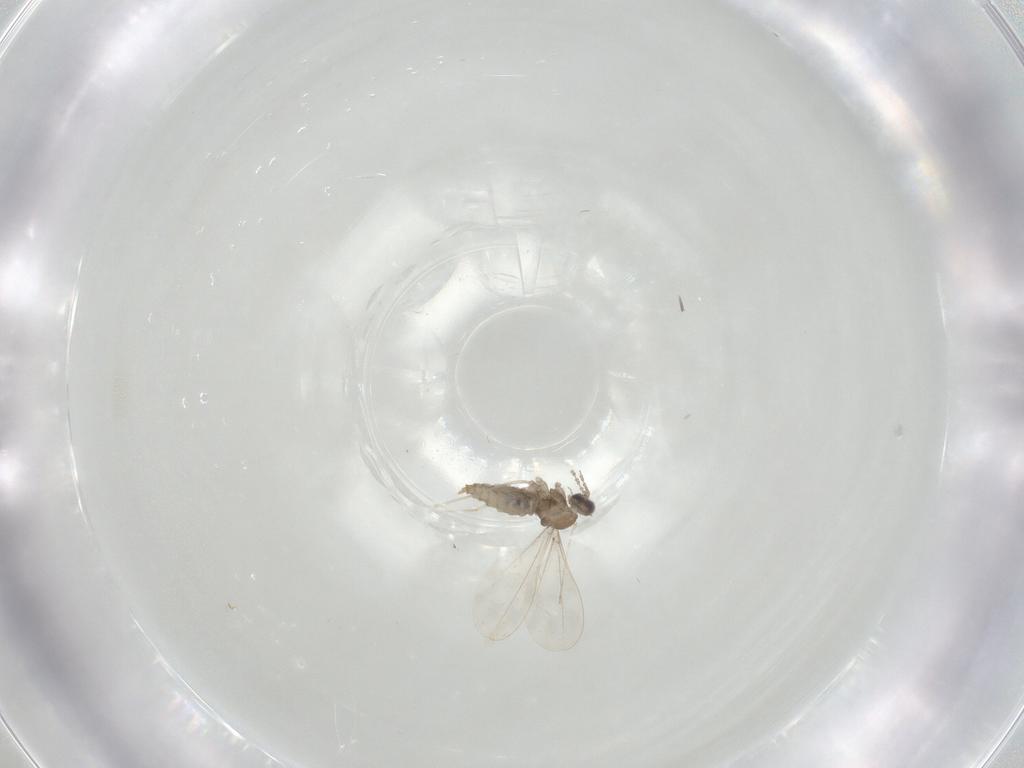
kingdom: Animalia
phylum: Arthropoda
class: Insecta
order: Diptera
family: Cecidomyiidae
